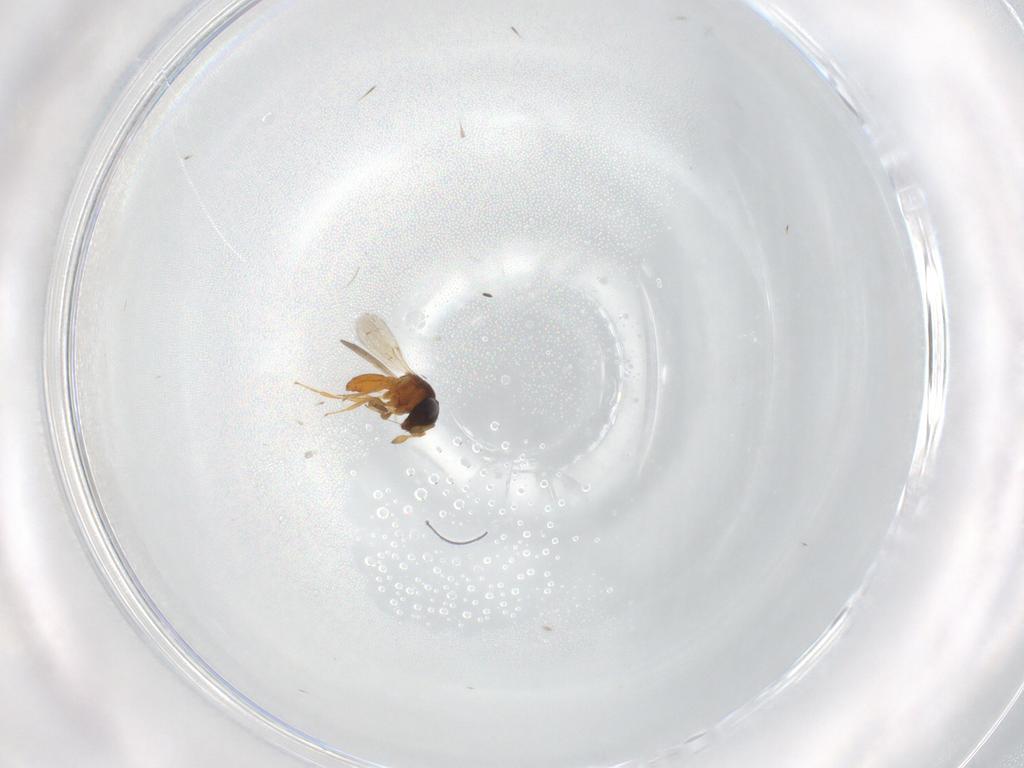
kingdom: Animalia
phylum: Arthropoda
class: Insecta
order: Hymenoptera
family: Scelionidae
